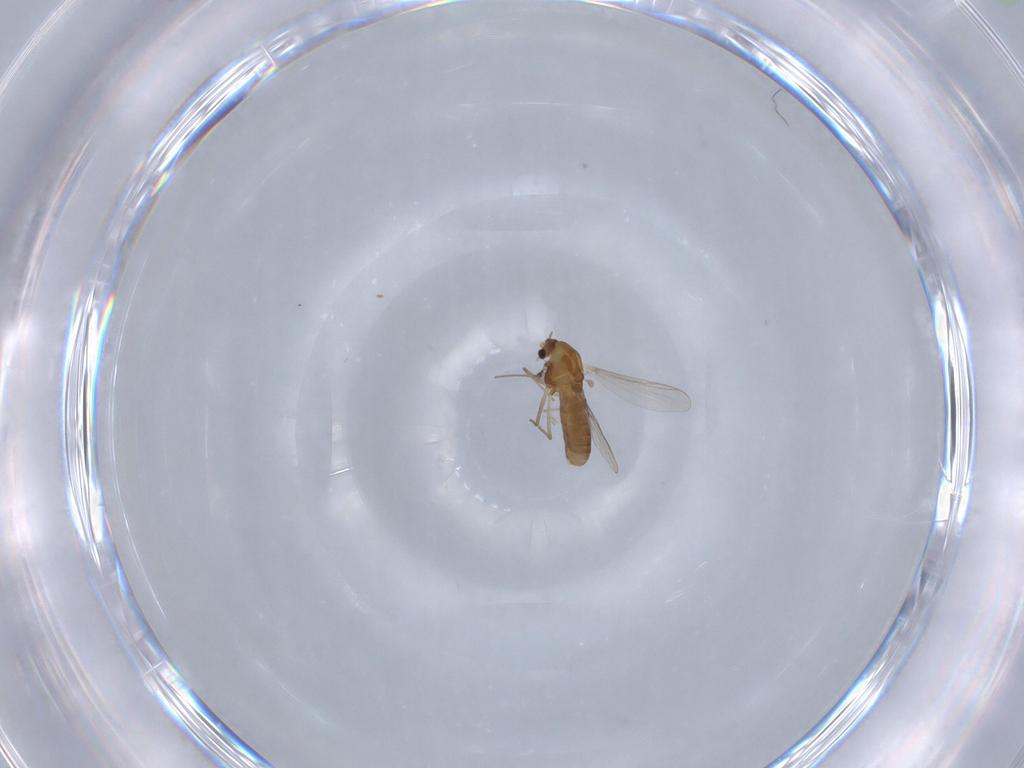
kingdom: Animalia
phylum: Arthropoda
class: Insecta
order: Diptera
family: Chironomidae
